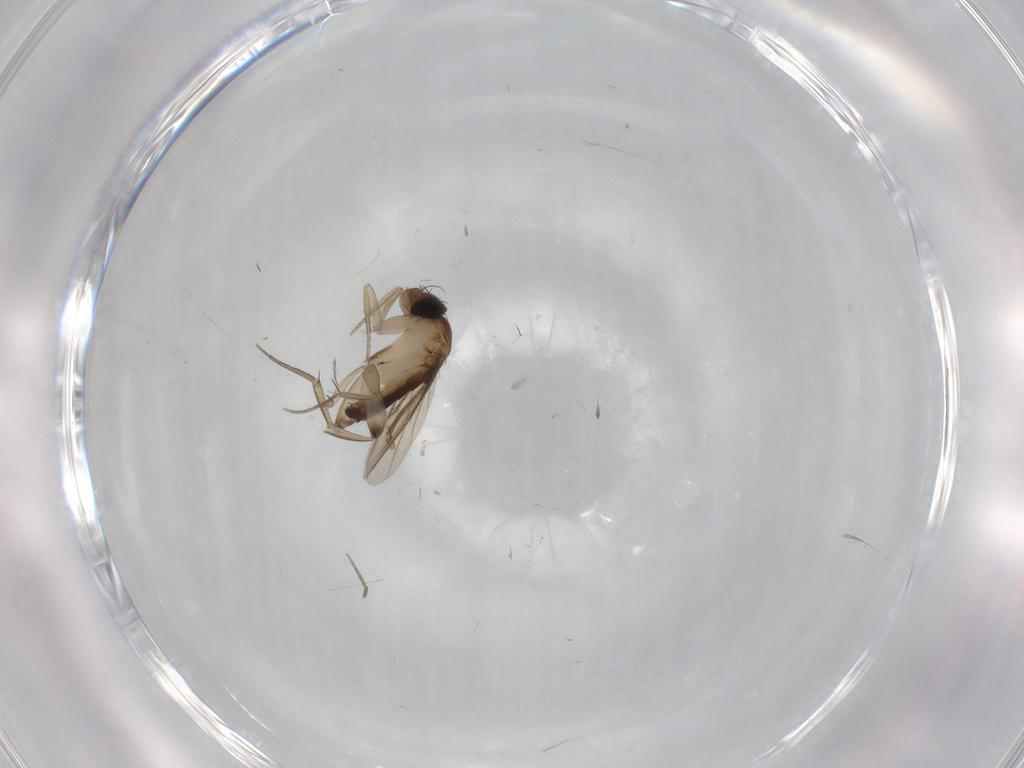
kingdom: Animalia
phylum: Arthropoda
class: Insecta
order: Diptera
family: Phoridae
